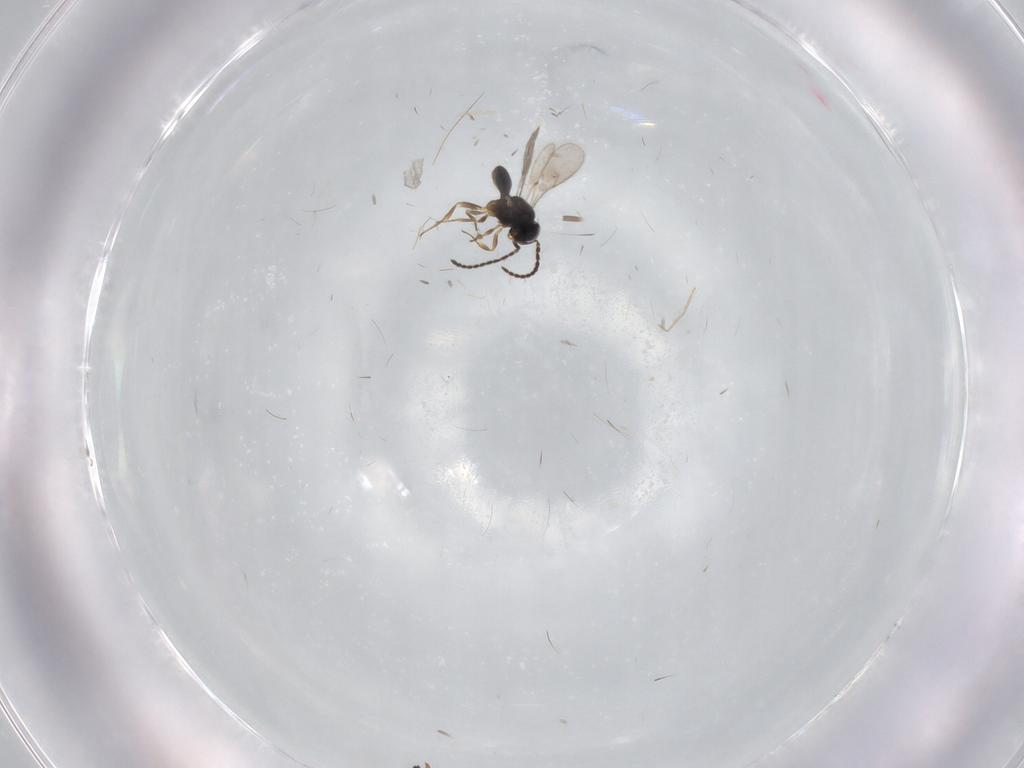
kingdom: Animalia
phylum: Arthropoda
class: Insecta
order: Hymenoptera
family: Scelionidae
